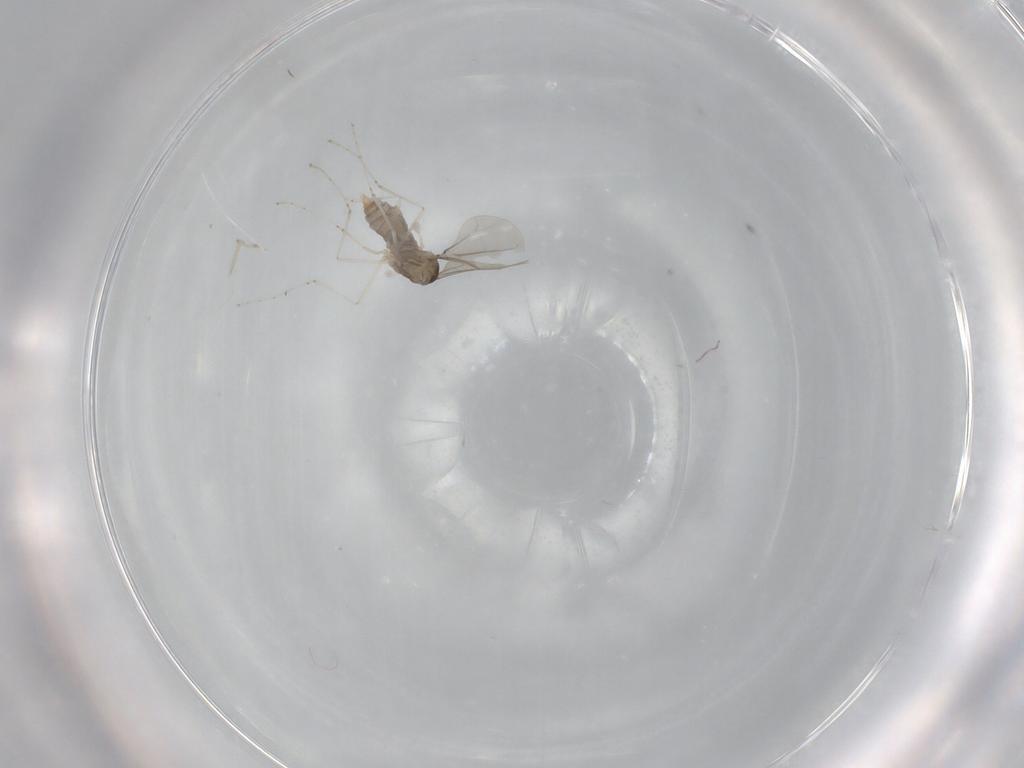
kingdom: Animalia
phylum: Arthropoda
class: Insecta
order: Diptera
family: Cecidomyiidae
